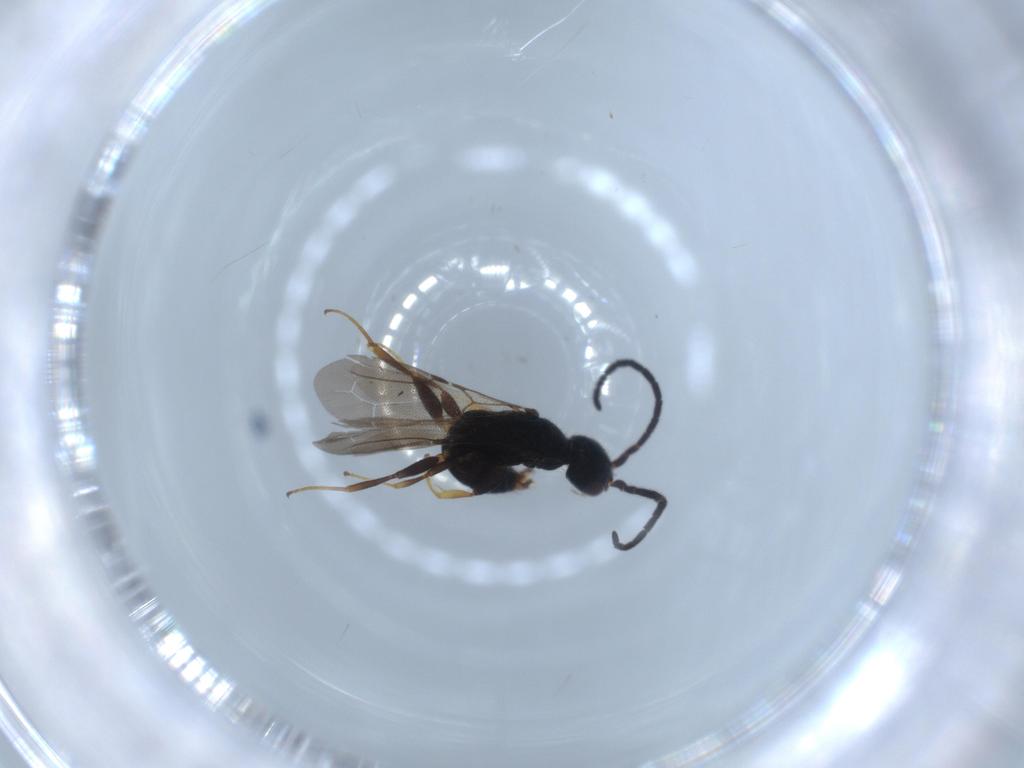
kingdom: Animalia
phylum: Arthropoda
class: Insecta
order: Hymenoptera
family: Bethylidae
